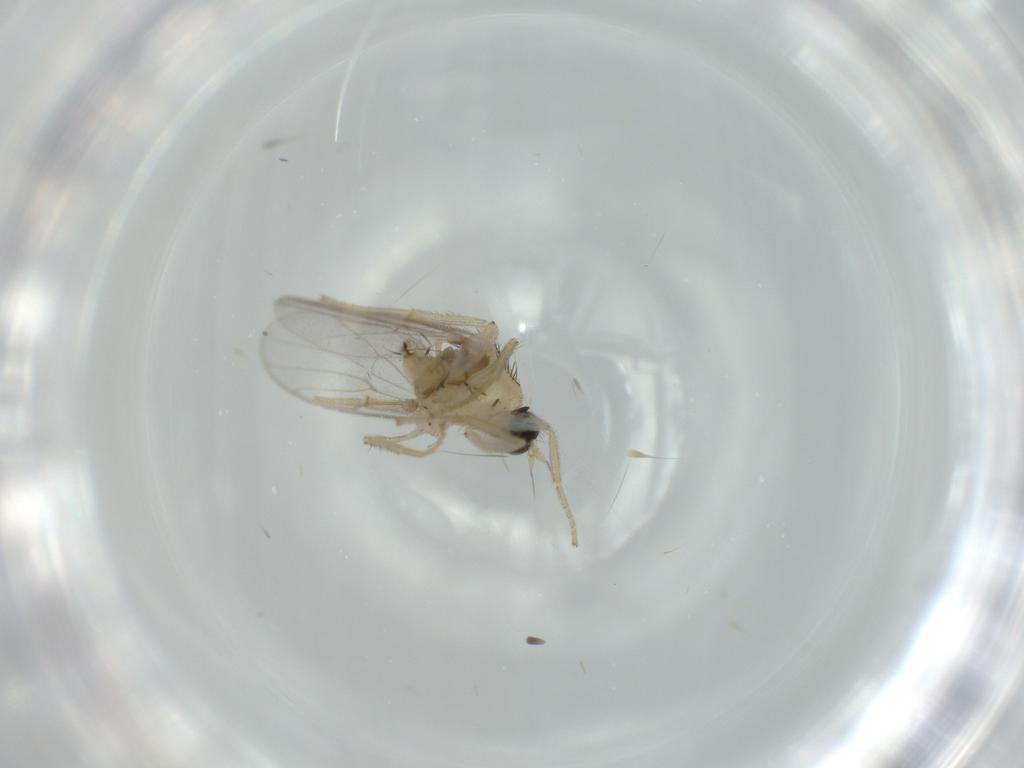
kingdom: Animalia
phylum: Arthropoda
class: Insecta
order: Diptera
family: Hybotidae
